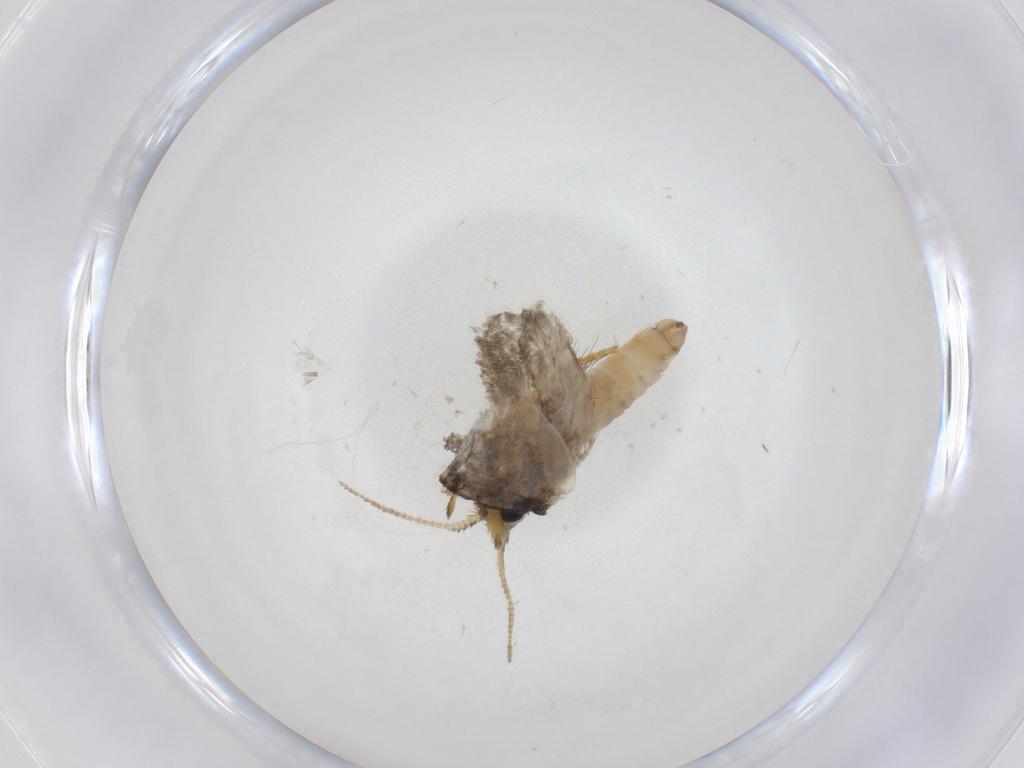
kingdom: Animalia
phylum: Arthropoda
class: Insecta
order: Lepidoptera
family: Psychidae
